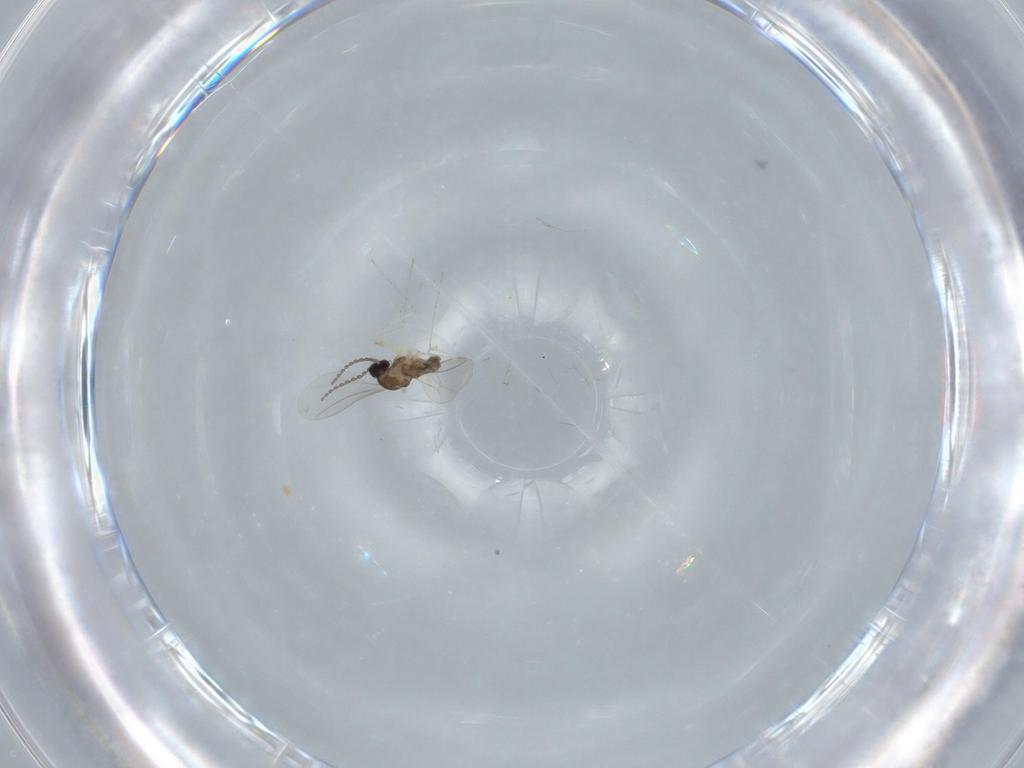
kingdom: Animalia
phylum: Arthropoda
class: Insecta
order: Diptera
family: Cecidomyiidae
